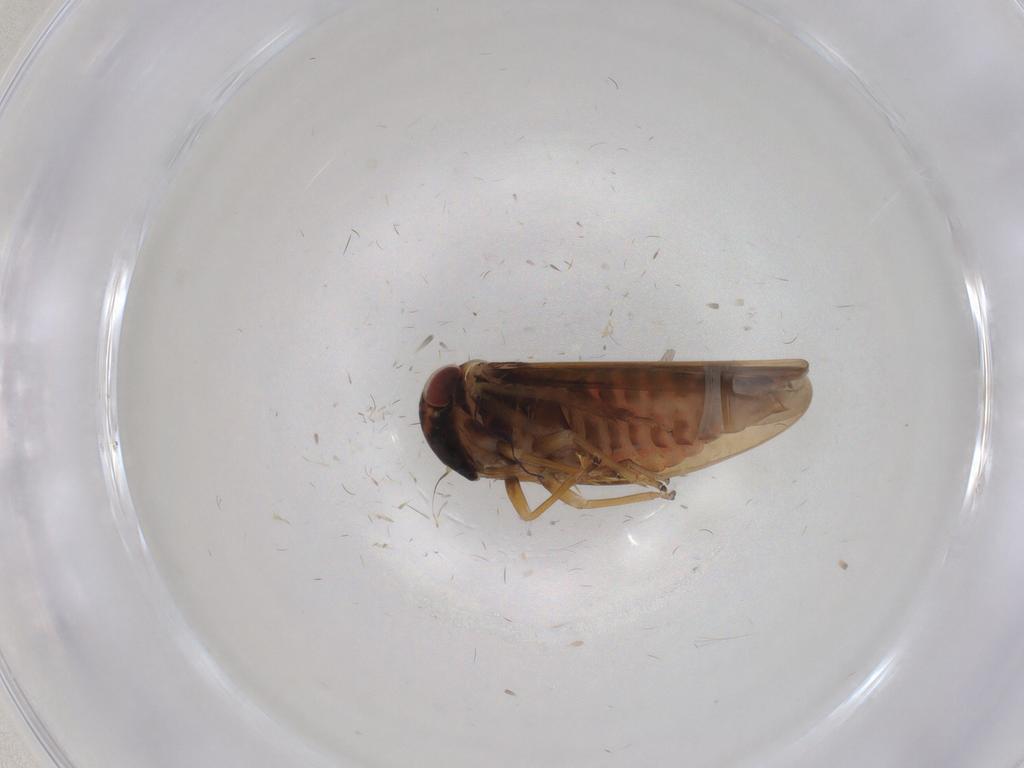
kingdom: Animalia
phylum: Arthropoda
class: Insecta
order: Hemiptera
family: Cicadellidae
